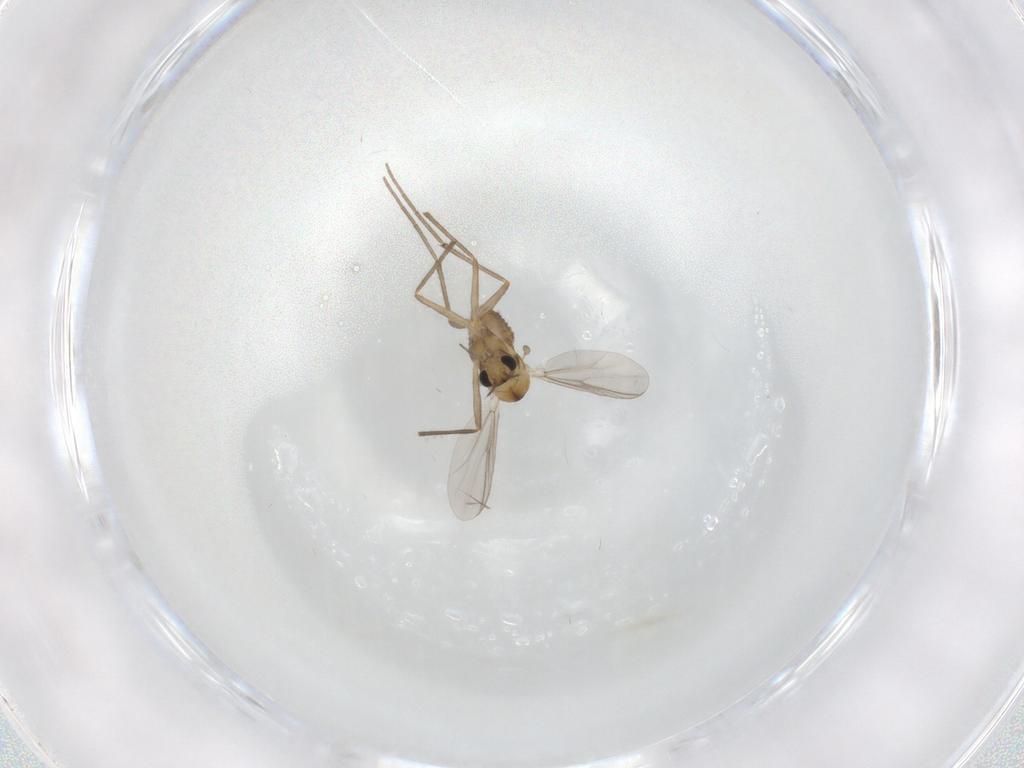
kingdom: Animalia
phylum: Arthropoda
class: Insecta
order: Diptera
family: Chironomidae
